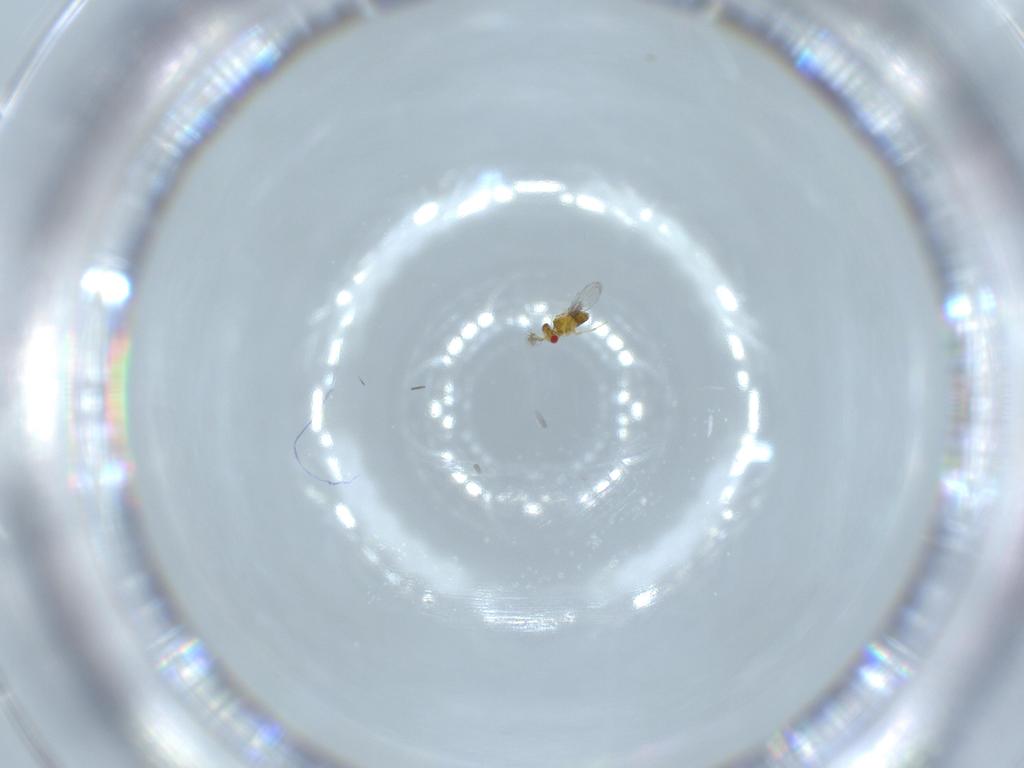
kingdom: Animalia
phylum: Arthropoda
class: Insecta
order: Hymenoptera
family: Trichogrammatidae
